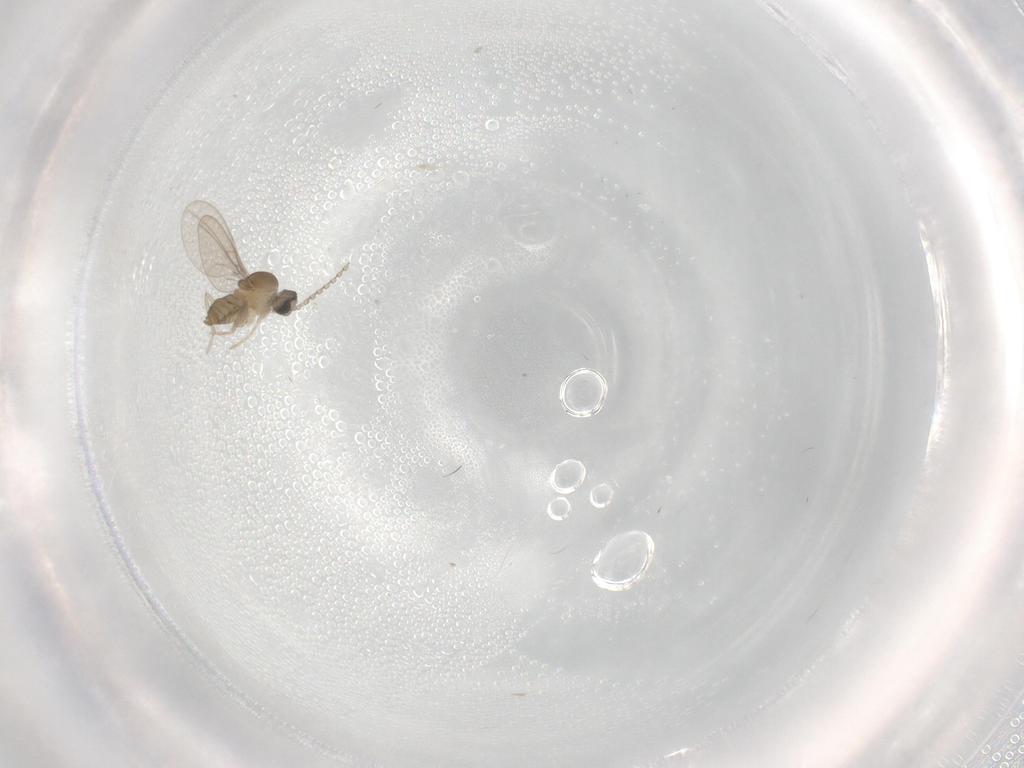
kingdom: Animalia
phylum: Arthropoda
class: Insecta
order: Diptera
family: Cecidomyiidae
